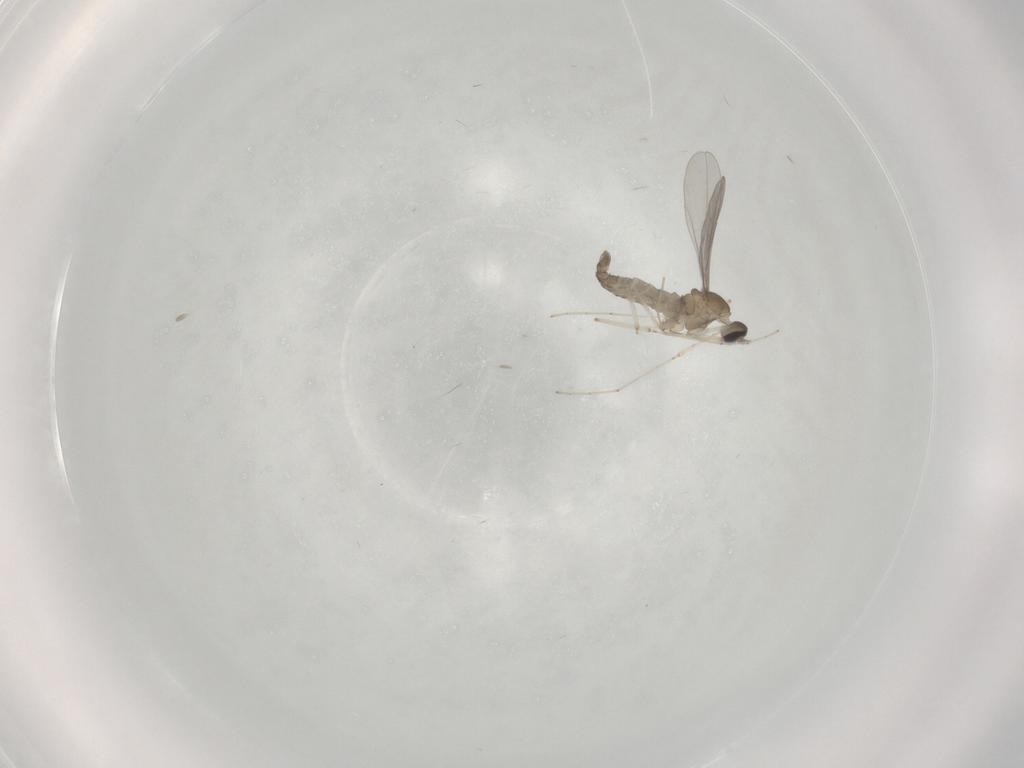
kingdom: Animalia
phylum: Arthropoda
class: Insecta
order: Diptera
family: Cecidomyiidae
